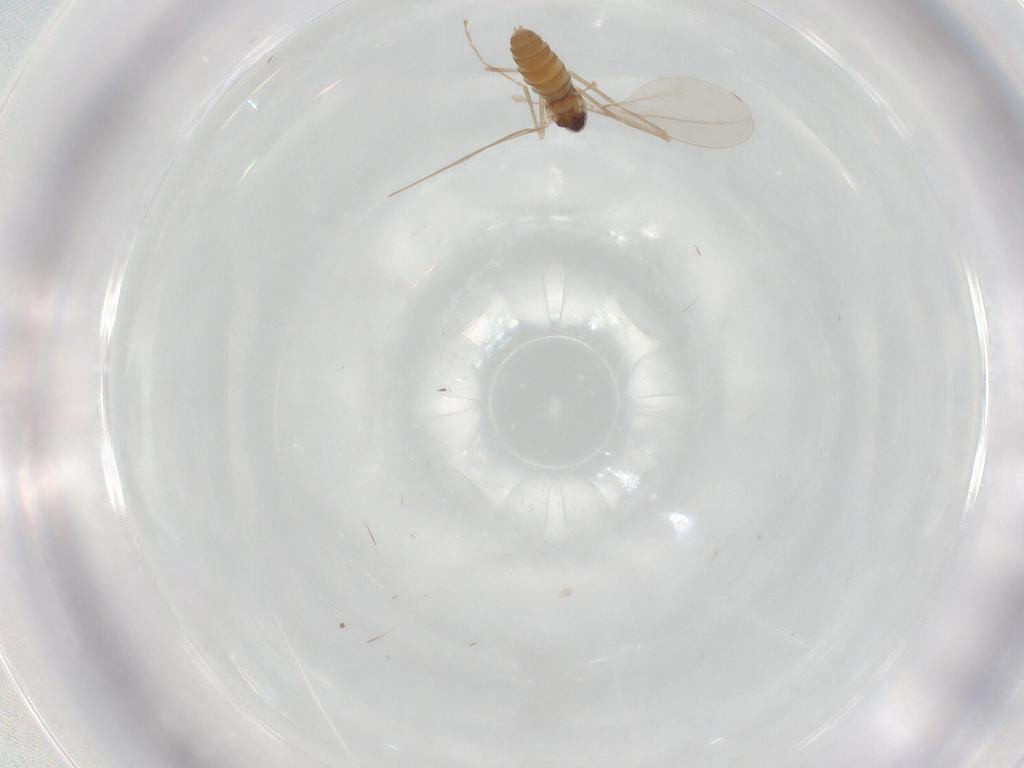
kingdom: Animalia
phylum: Arthropoda
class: Insecta
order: Diptera
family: Cecidomyiidae
